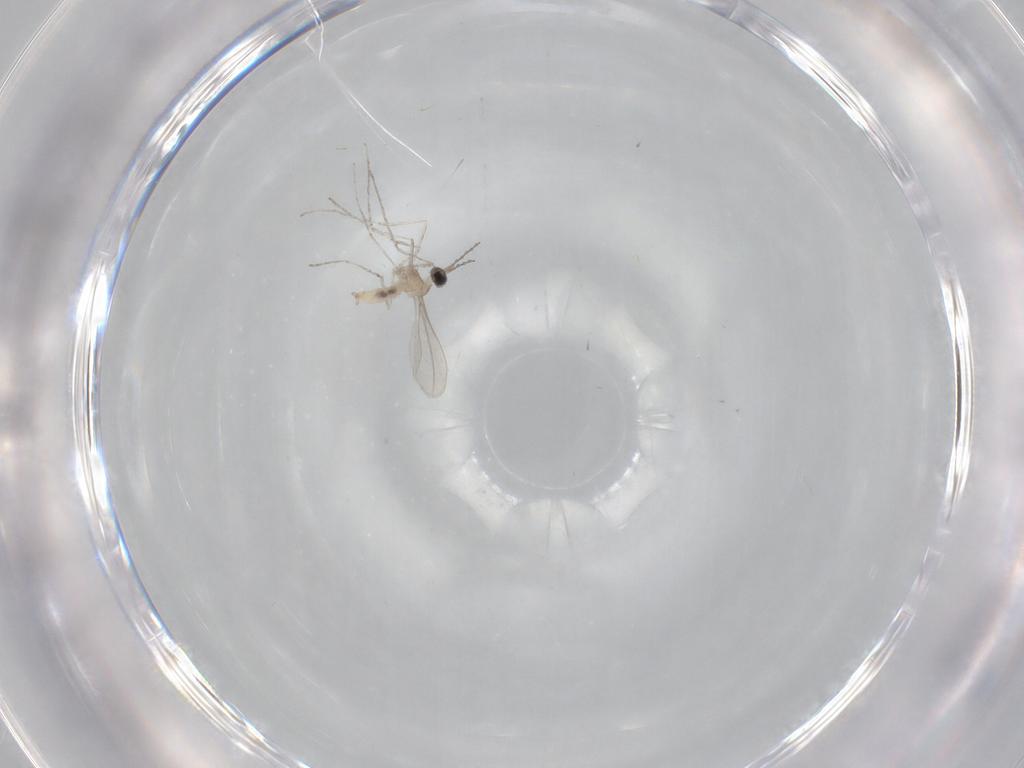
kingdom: Animalia
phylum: Arthropoda
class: Insecta
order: Diptera
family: Cecidomyiidae
